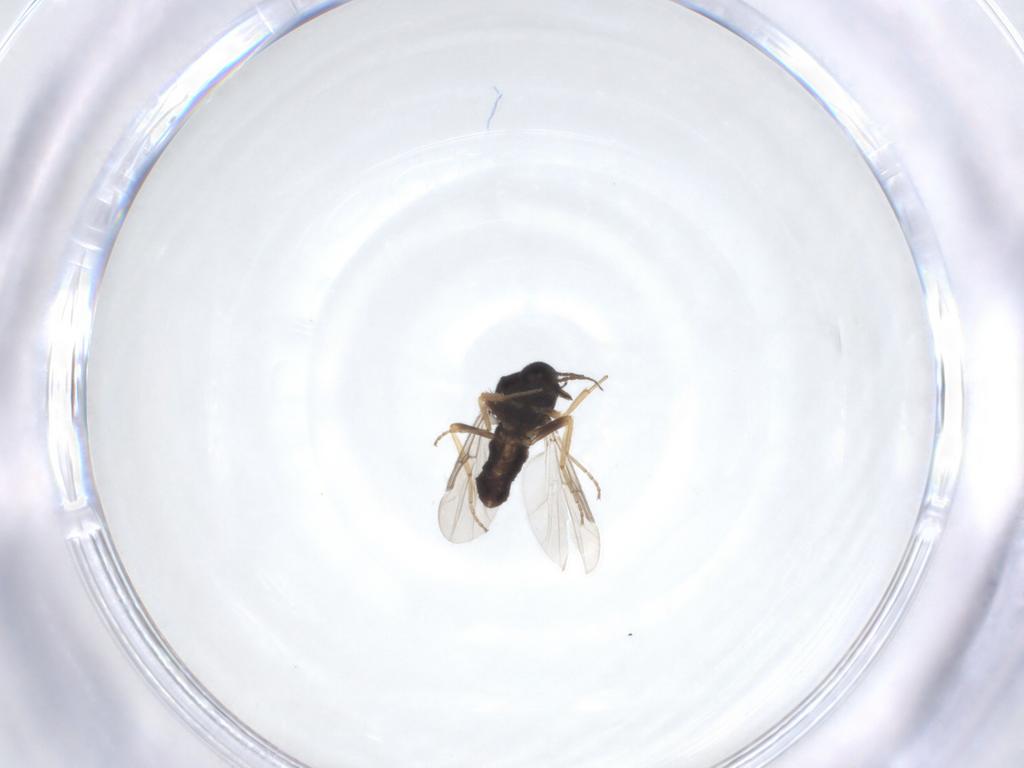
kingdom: Animalia
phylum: Arthropoda
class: Insecta
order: Diptera
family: Ceratopogonidae
